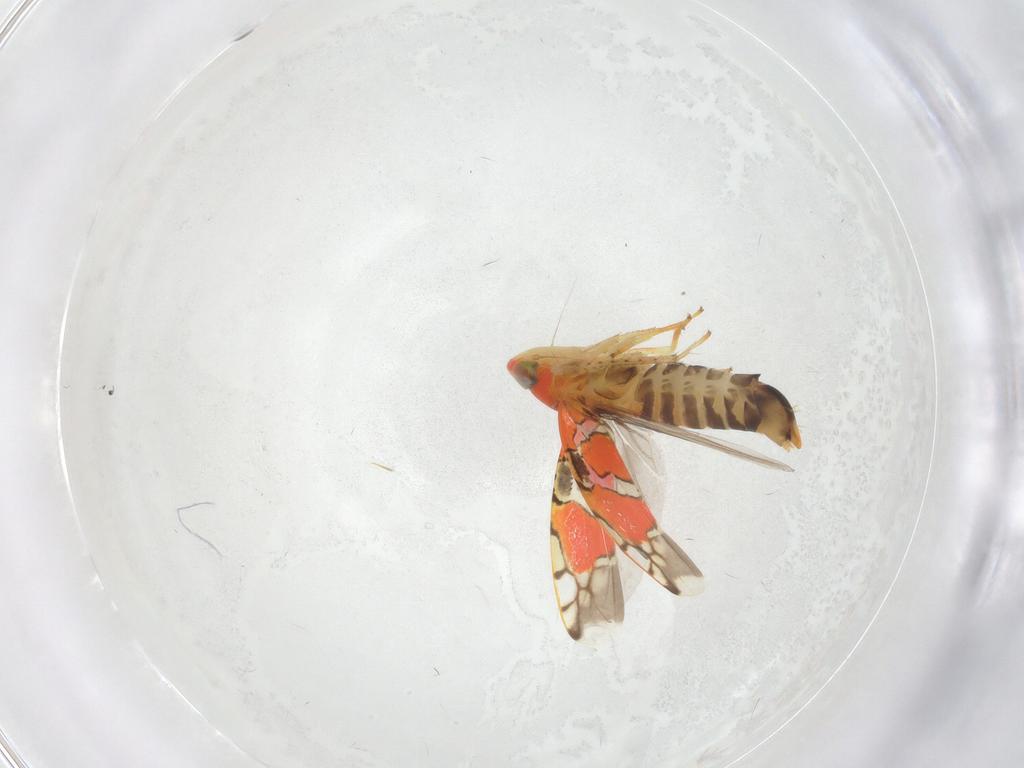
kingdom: Animalia
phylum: Arthropoda
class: Insecta
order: Hemiptera
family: Cicadellidae
